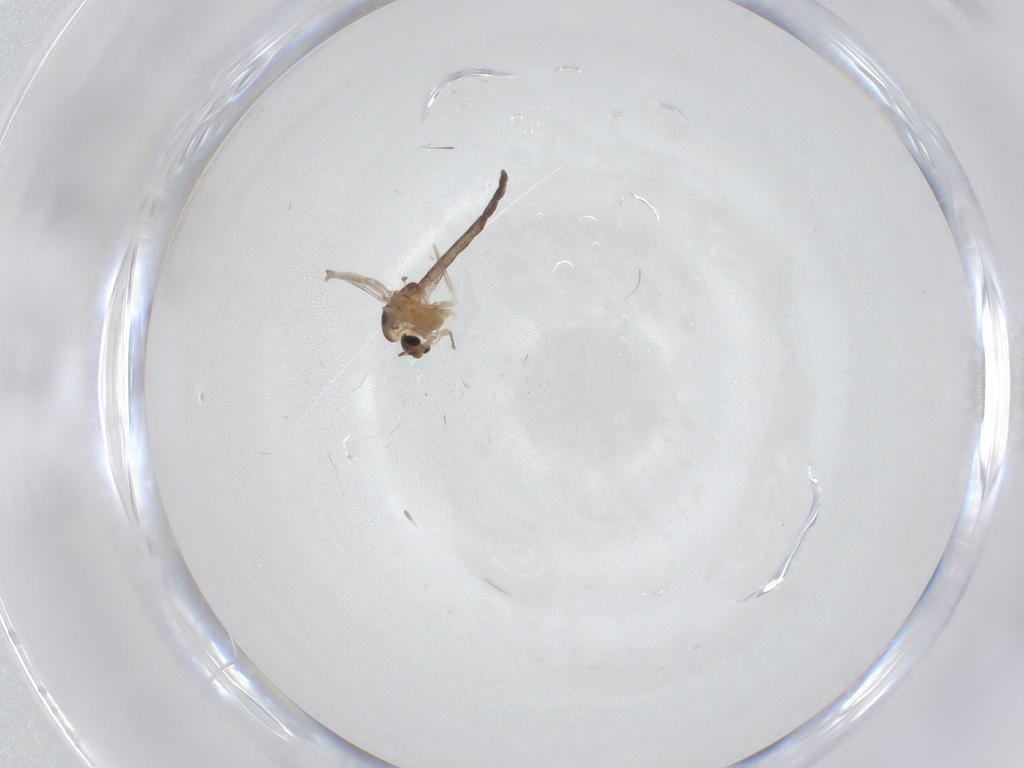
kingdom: Animalia
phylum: Arthropoda
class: Insecta
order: Diptera
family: Chironomidae
